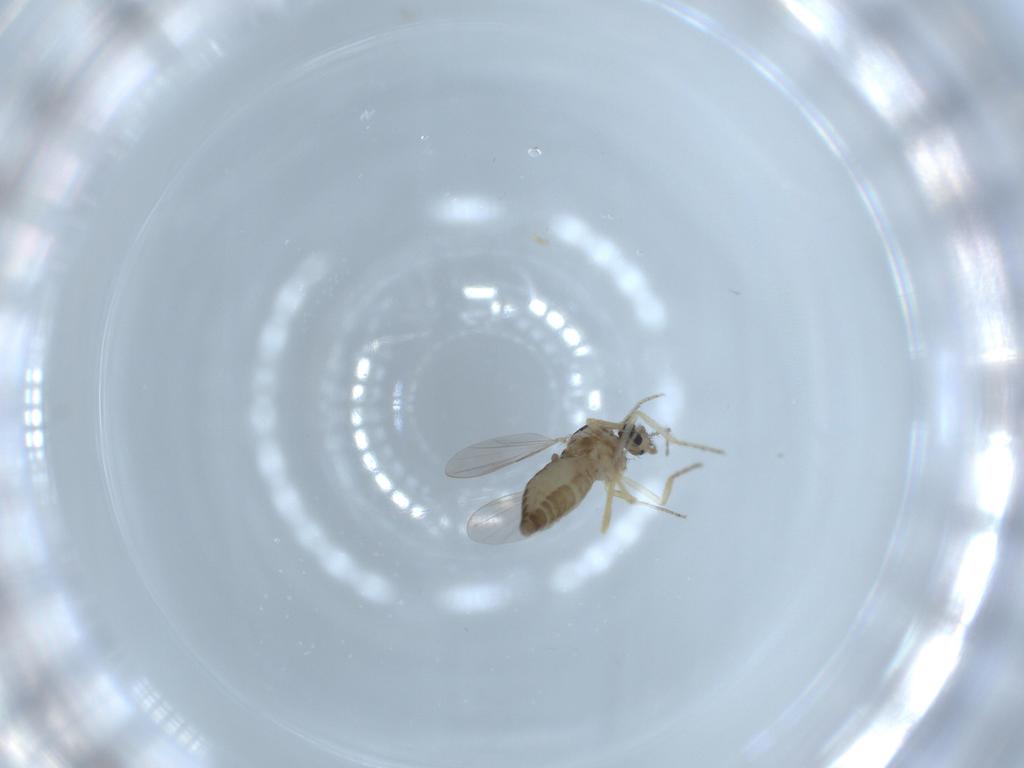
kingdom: Animalia
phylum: Arthropoda
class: Insecta
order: Diptera
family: Ceratopogonidae
